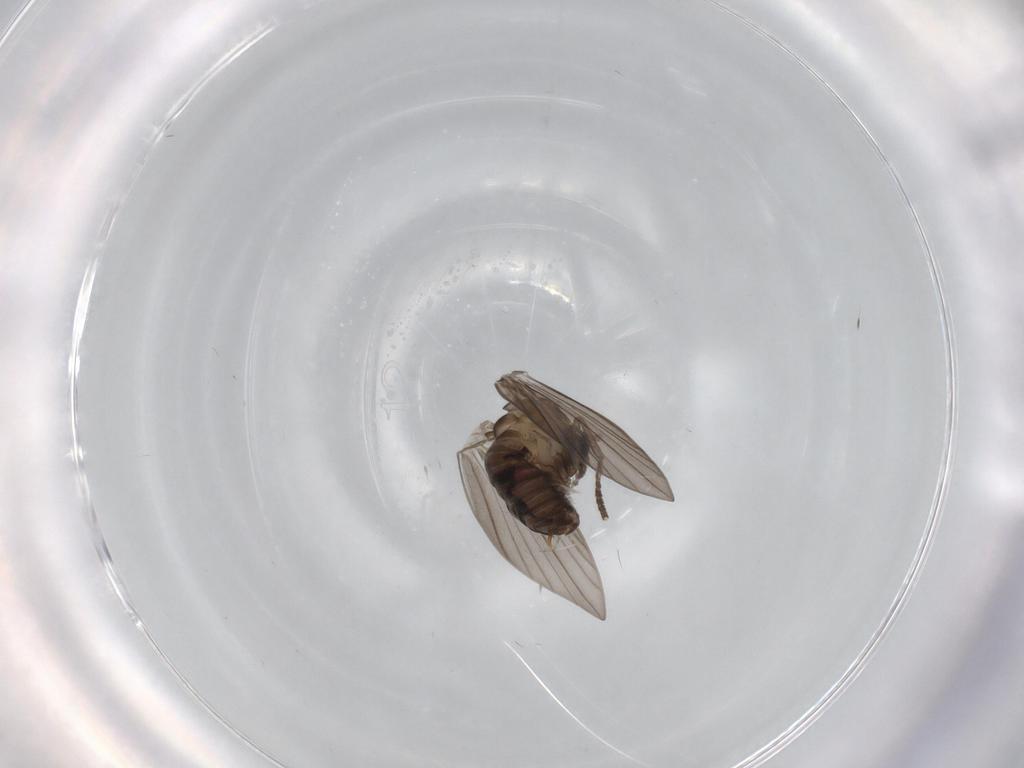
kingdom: Animalia
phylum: Arthropoda
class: Insecta
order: Diptera
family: Psychodidae
